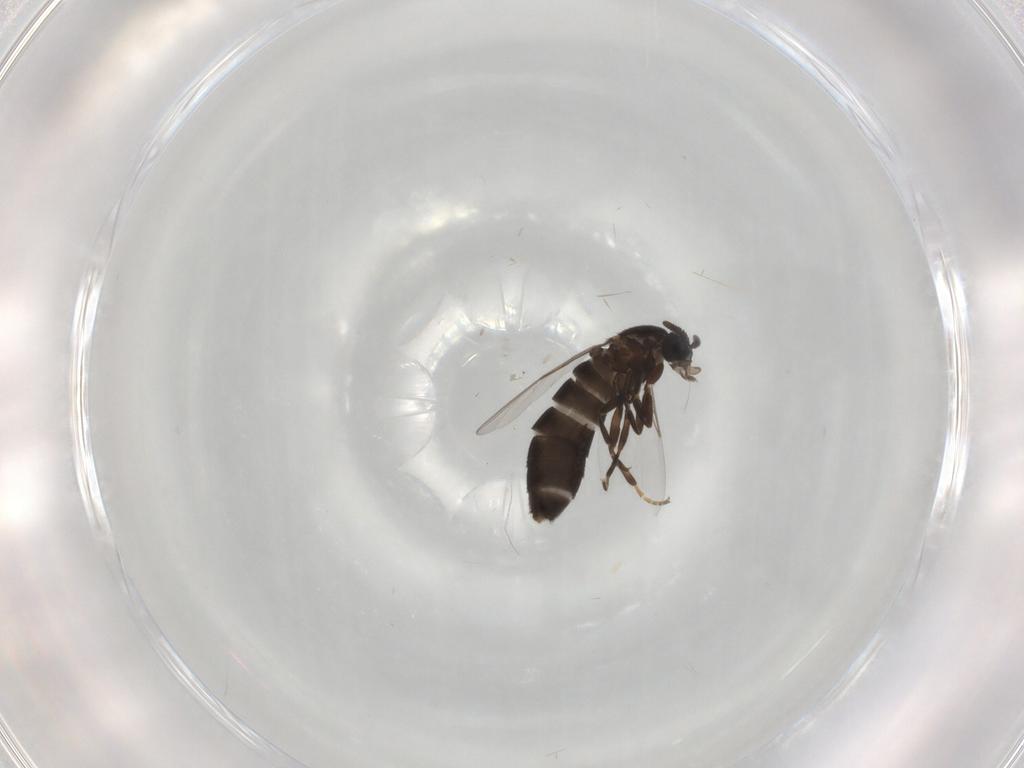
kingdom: Animalia
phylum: Arthropoda
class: Insecta
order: Diptera
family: Scatopsidae
